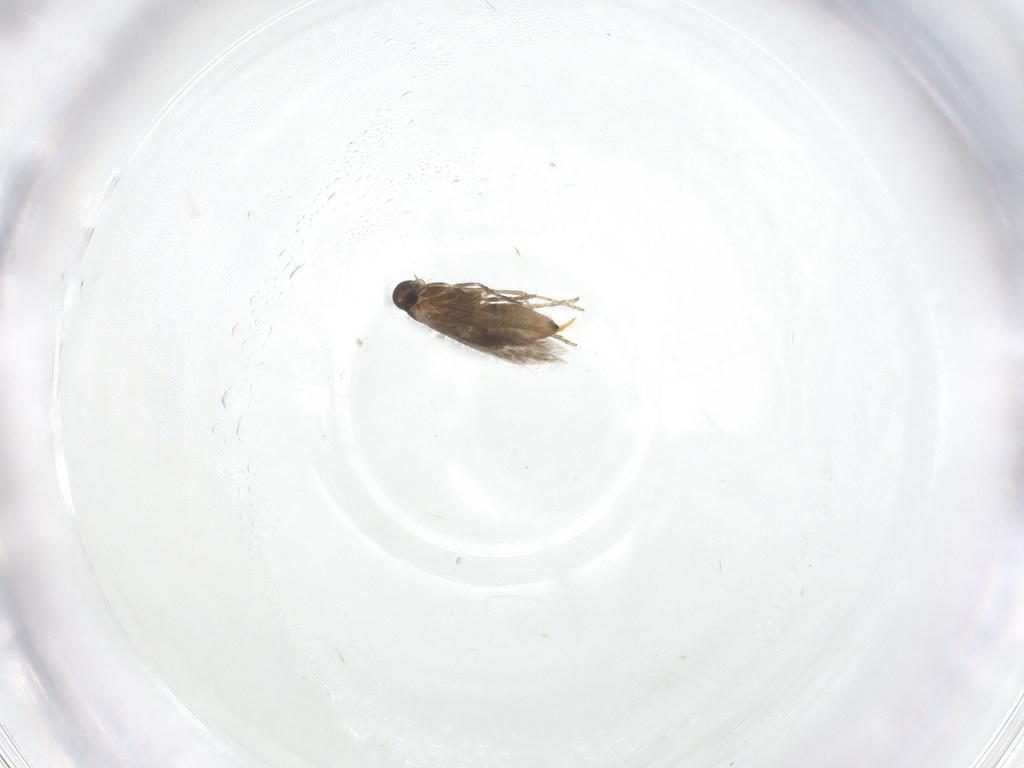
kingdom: Animalia
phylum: Arthropoda
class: Insecta
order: Lepidoptera
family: Heliozelidae
